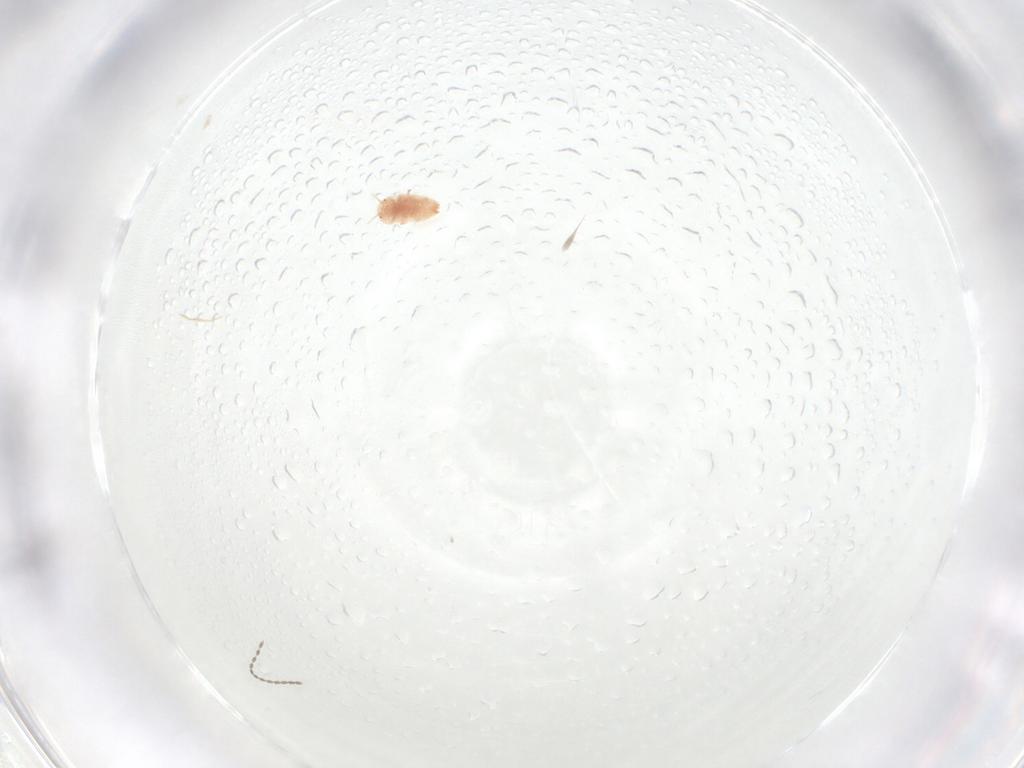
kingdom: Animalia
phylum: Arthropoda
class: Insecta
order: Hemiptera
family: Coccidae
